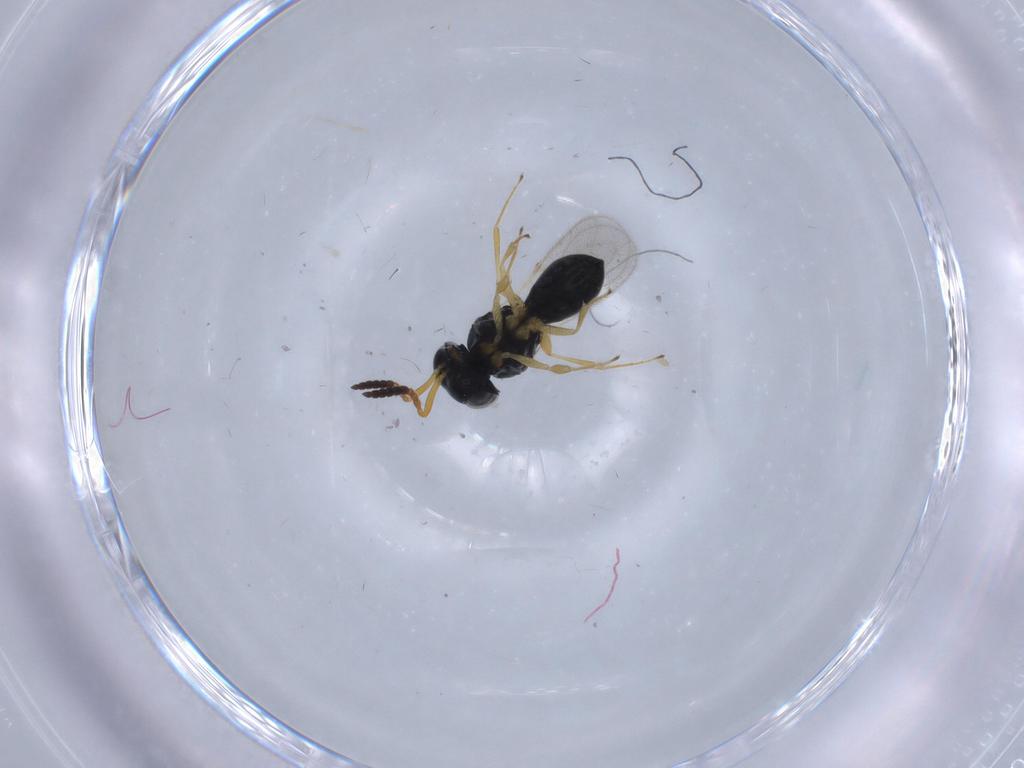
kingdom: Animalia
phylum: Arthropoda
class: Insecta
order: Hymenoptera
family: Scelionidae
